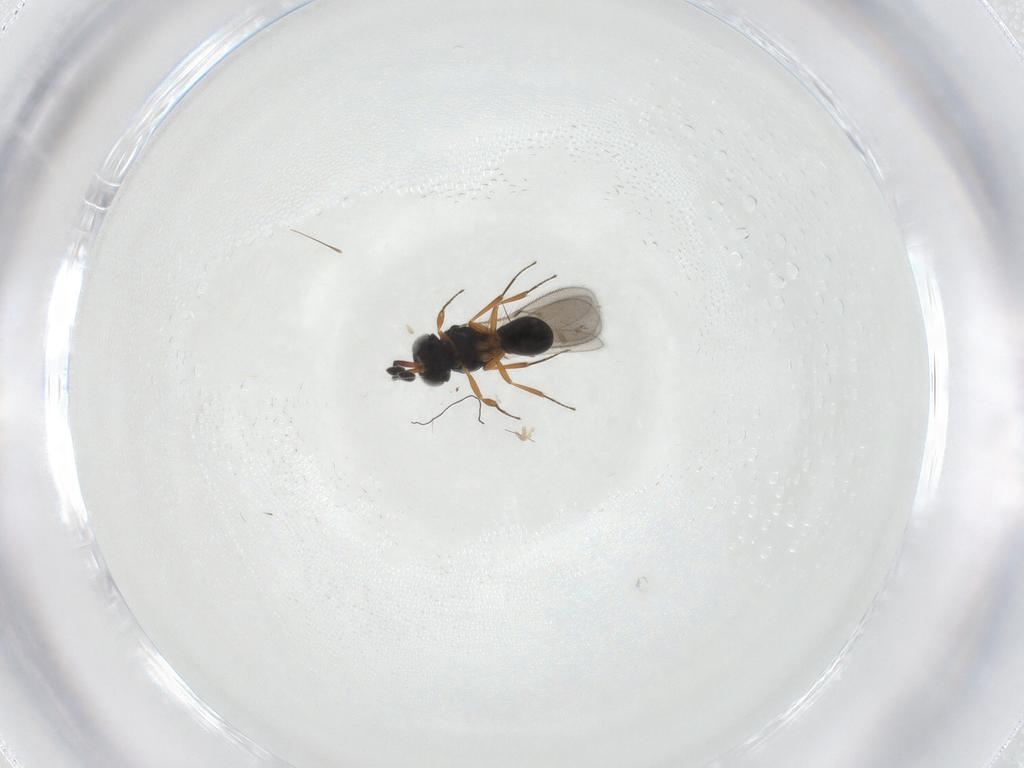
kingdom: Animalia
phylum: Arthropoda
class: Insecta
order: Hymenoptera
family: Scelionidae
